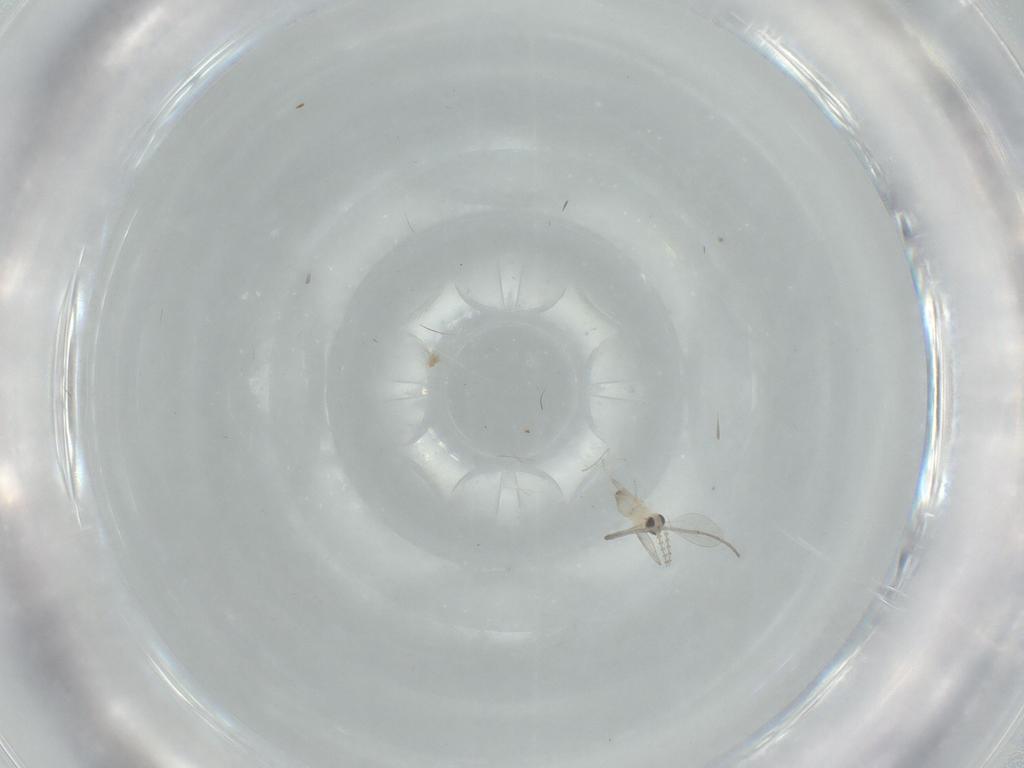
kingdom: Animalia
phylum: Arthropoda
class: Insecta
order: Diptera
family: Chironomidae
